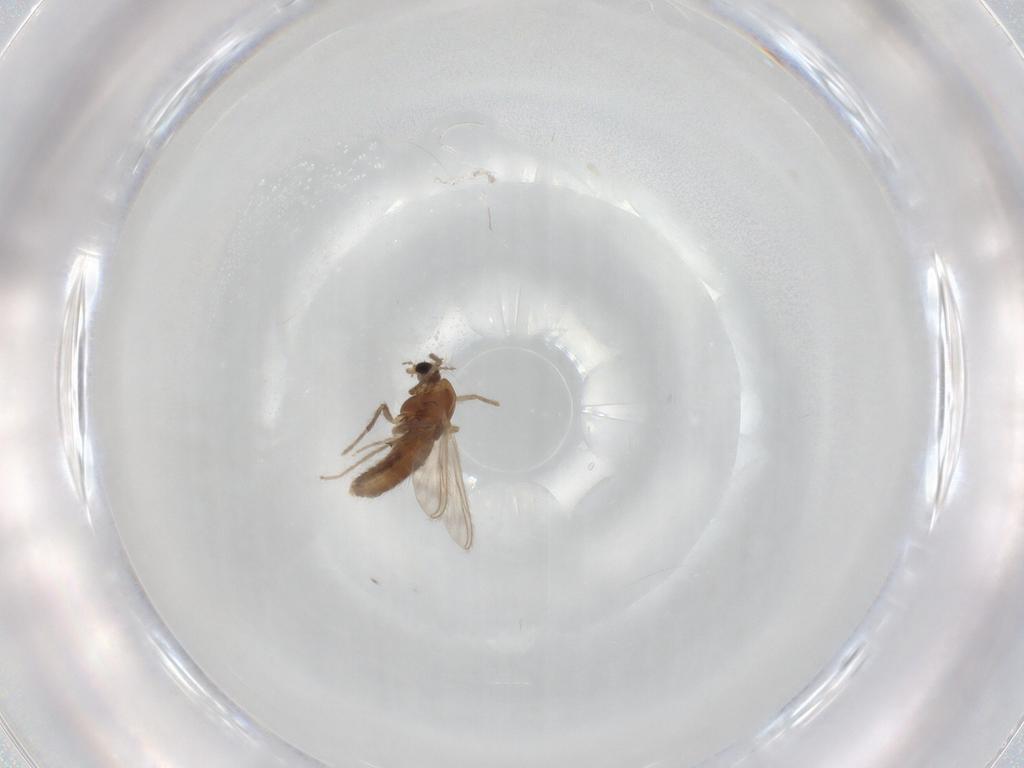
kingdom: Animalia
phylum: Arthropoda
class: Insecta
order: Diptera
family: Chironomidae
